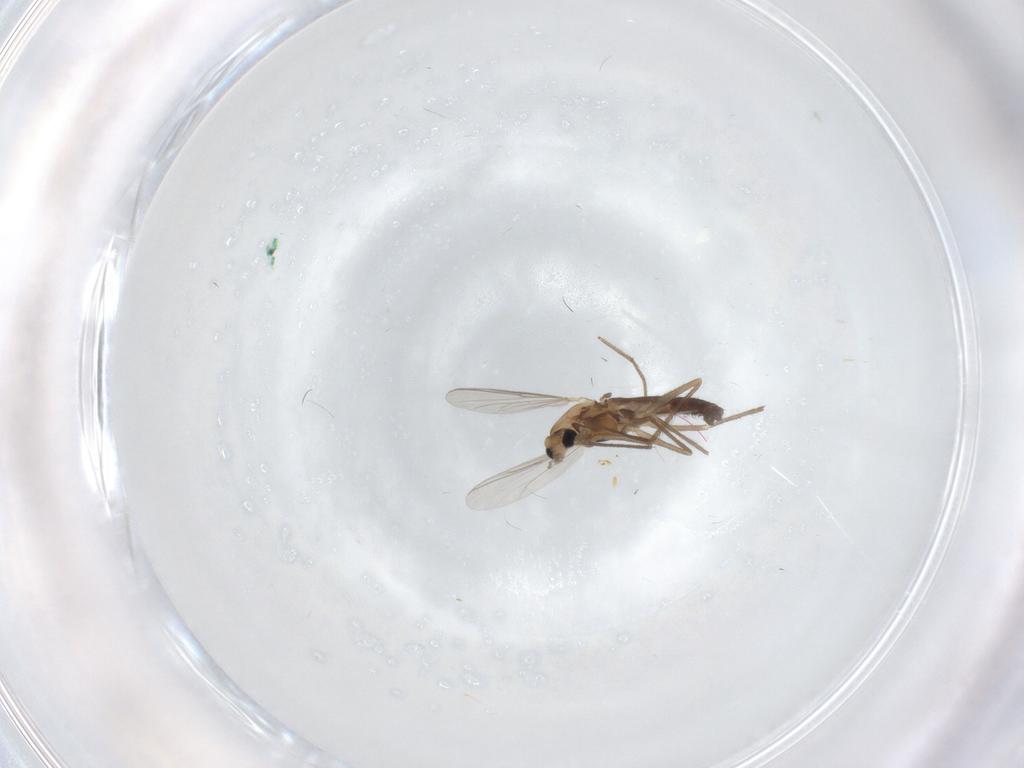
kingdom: Animalia
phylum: Arthropoda
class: Insecta
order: Diptera
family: Chironomidae
